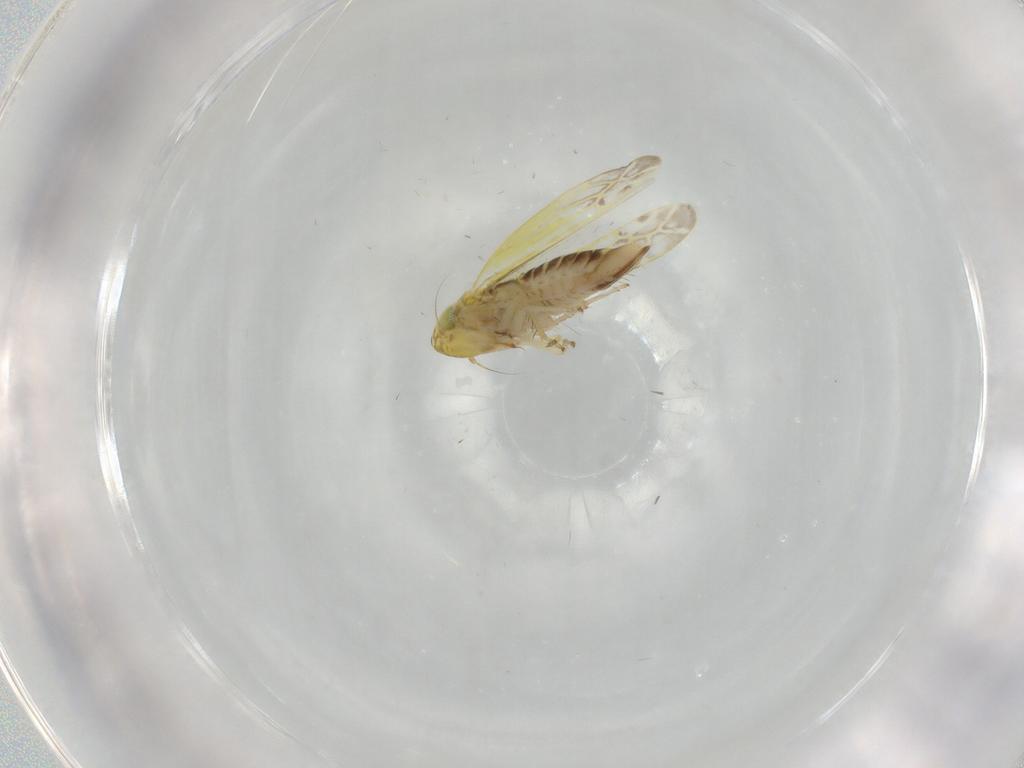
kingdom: Animalia
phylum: Arthropoda
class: Insecta
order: Hemiptera
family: Cicadellidae
